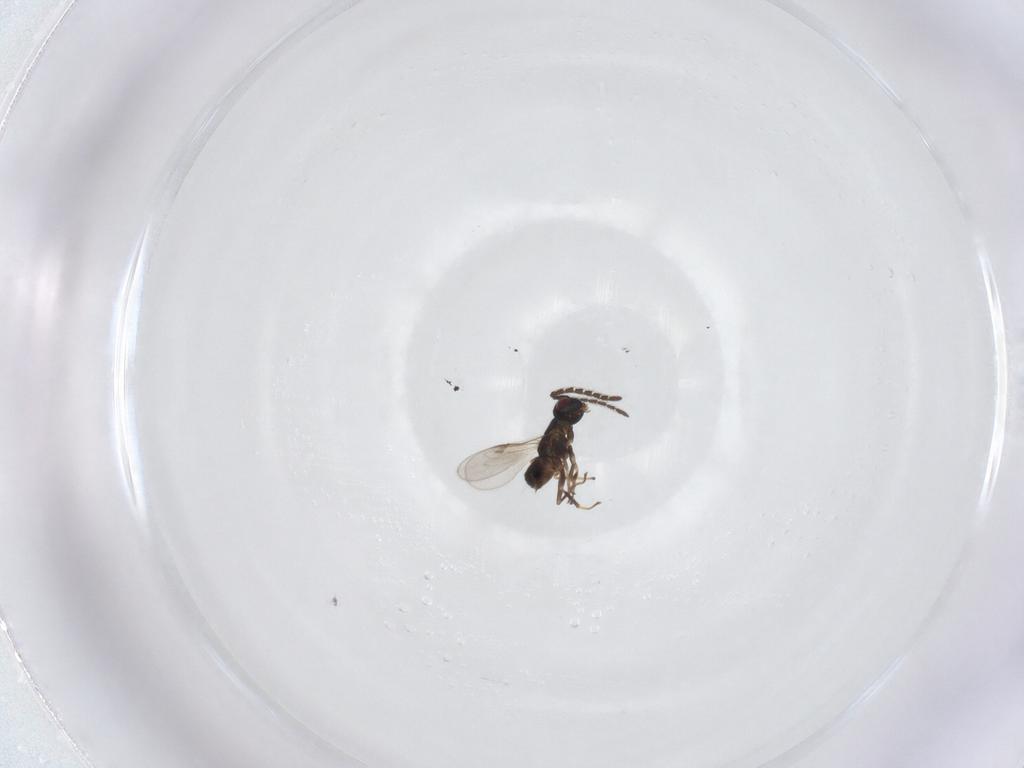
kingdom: Animalia
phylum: Arthropoda
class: Insecta
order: Hymenoptera
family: Encyrtidae
